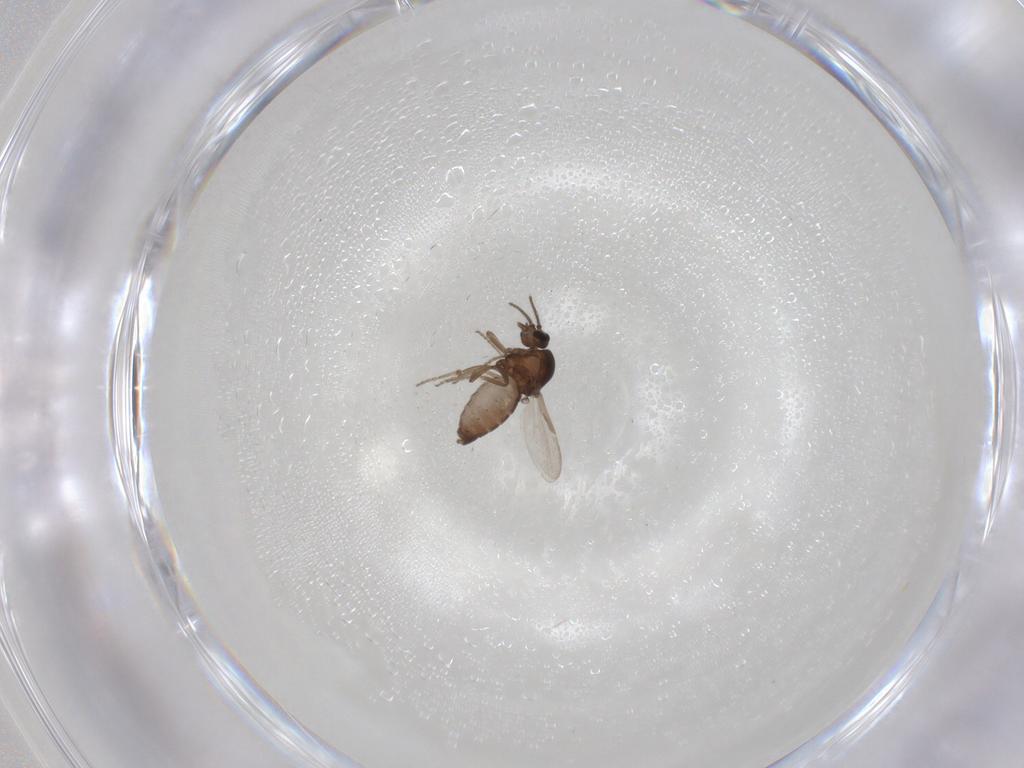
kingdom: Animalia
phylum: Arthropoda
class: Insecta
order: Diptera
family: Ceratopogonidae
